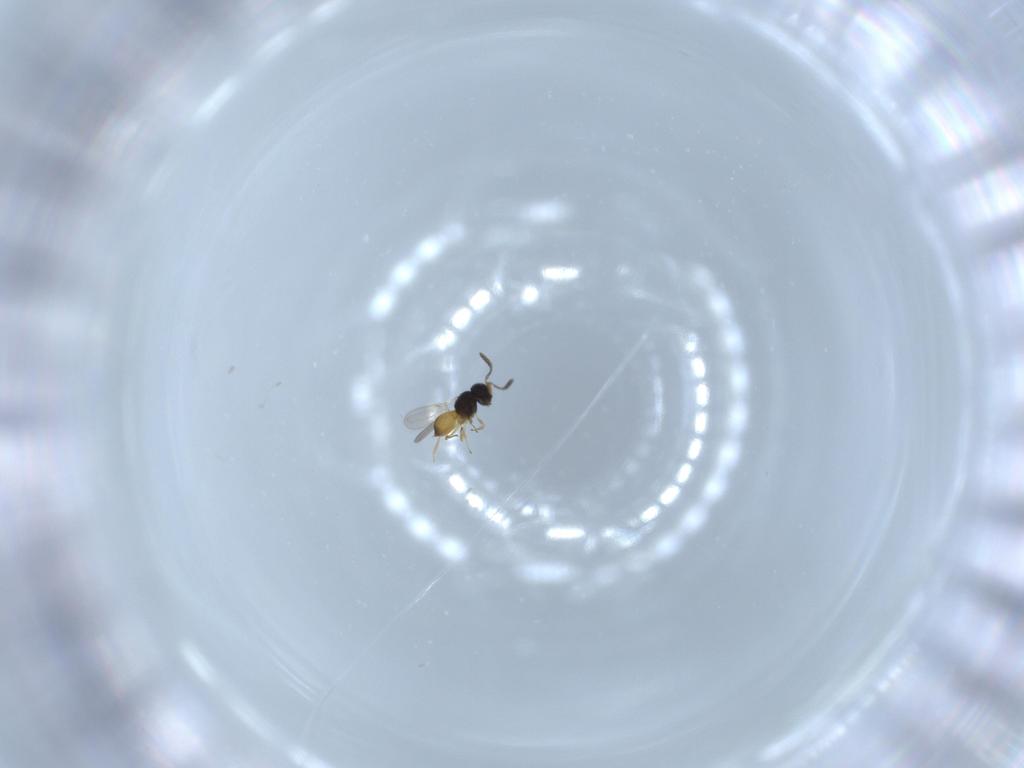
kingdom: Animalia
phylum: Arthropoda
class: Insecta
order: Hymenoptera
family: Scelionidae
